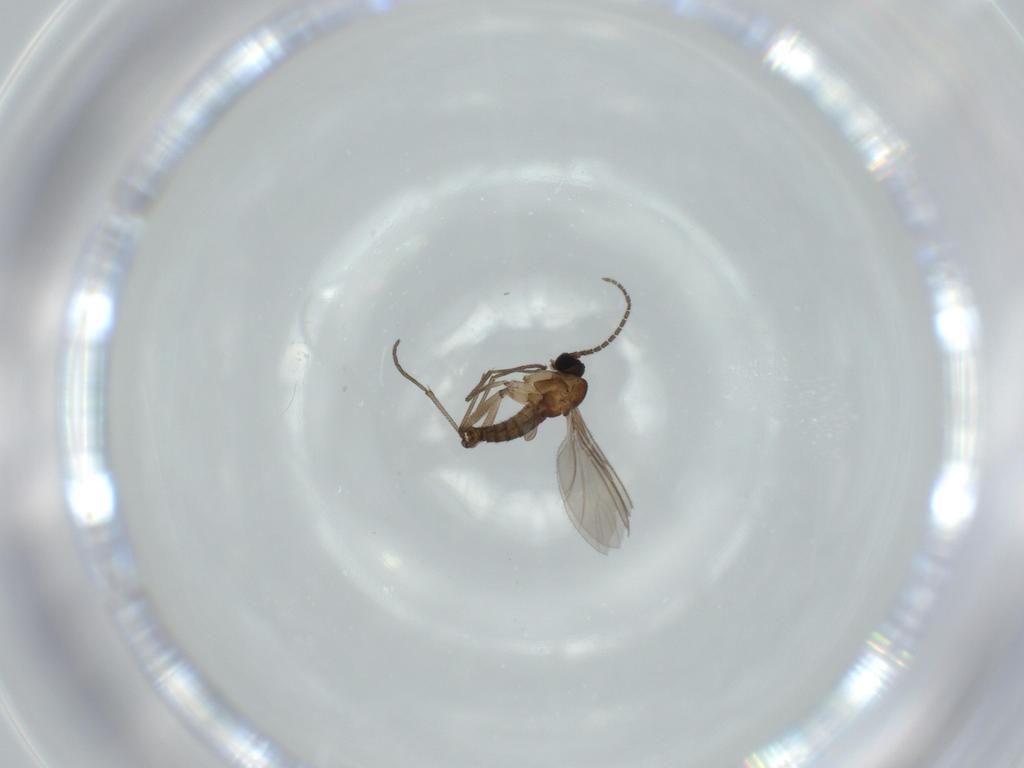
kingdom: Animalia
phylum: Arthropoda
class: Insecta
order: Diptera
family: Sciaridae
